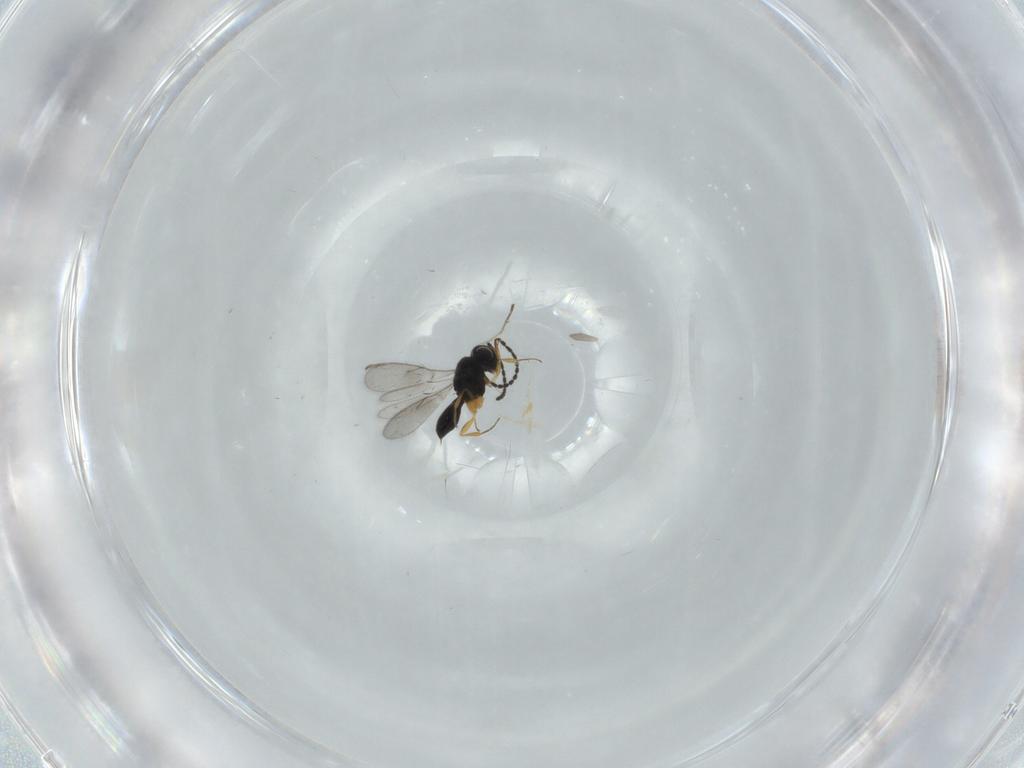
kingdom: Animalia
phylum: Arthropoda
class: Insecta
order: Hymenoptera
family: Scelionidae
